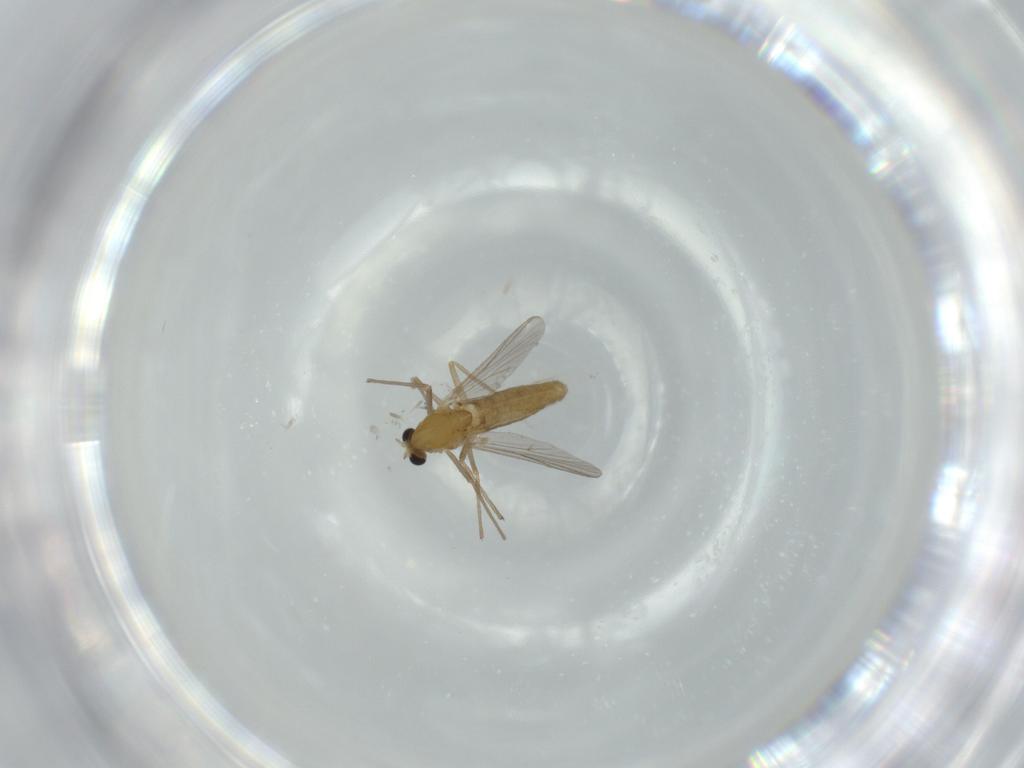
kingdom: Animalia
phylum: Arthropoda
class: Insecta
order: Diptera
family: Chironomidae
